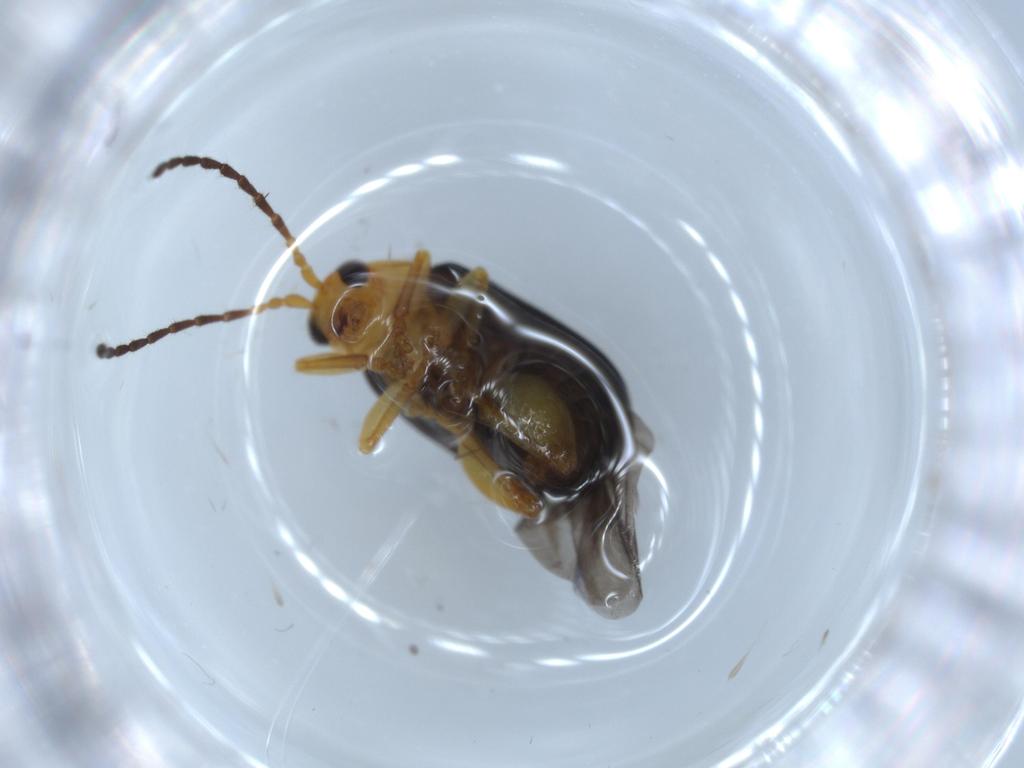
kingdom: Animalia
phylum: Arthropoda
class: Insecta
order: Coleoptera
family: Chrysomelidae
